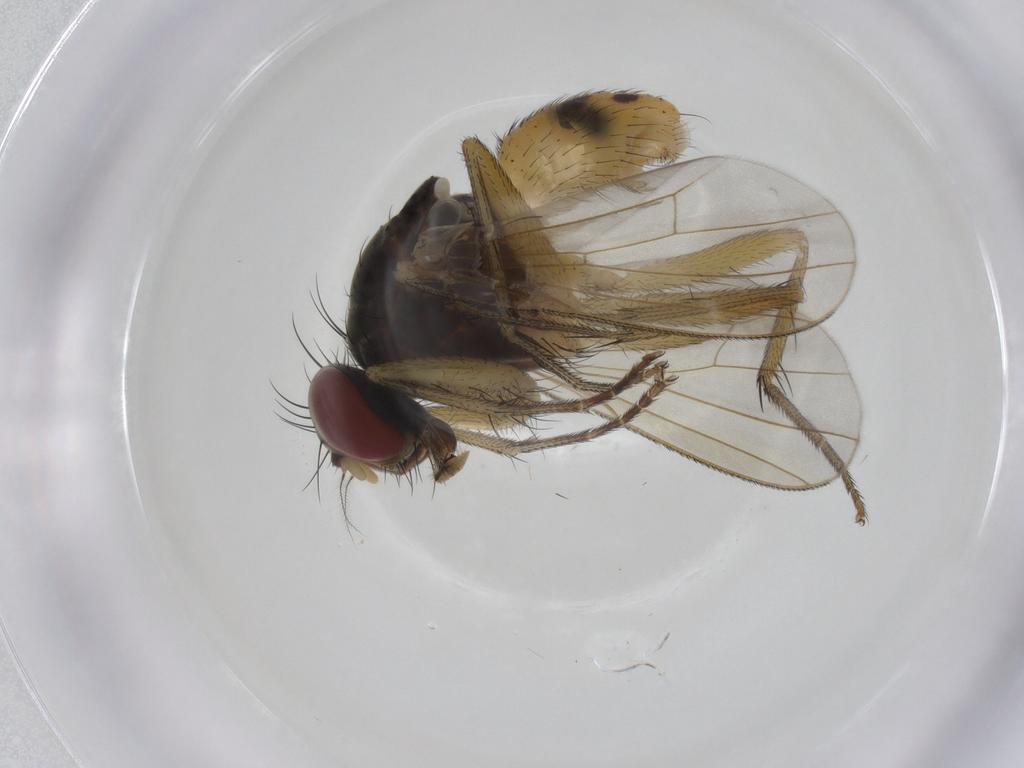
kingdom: Animalia
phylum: Arthropoda
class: Insecta
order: Diptera
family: Muscidae
